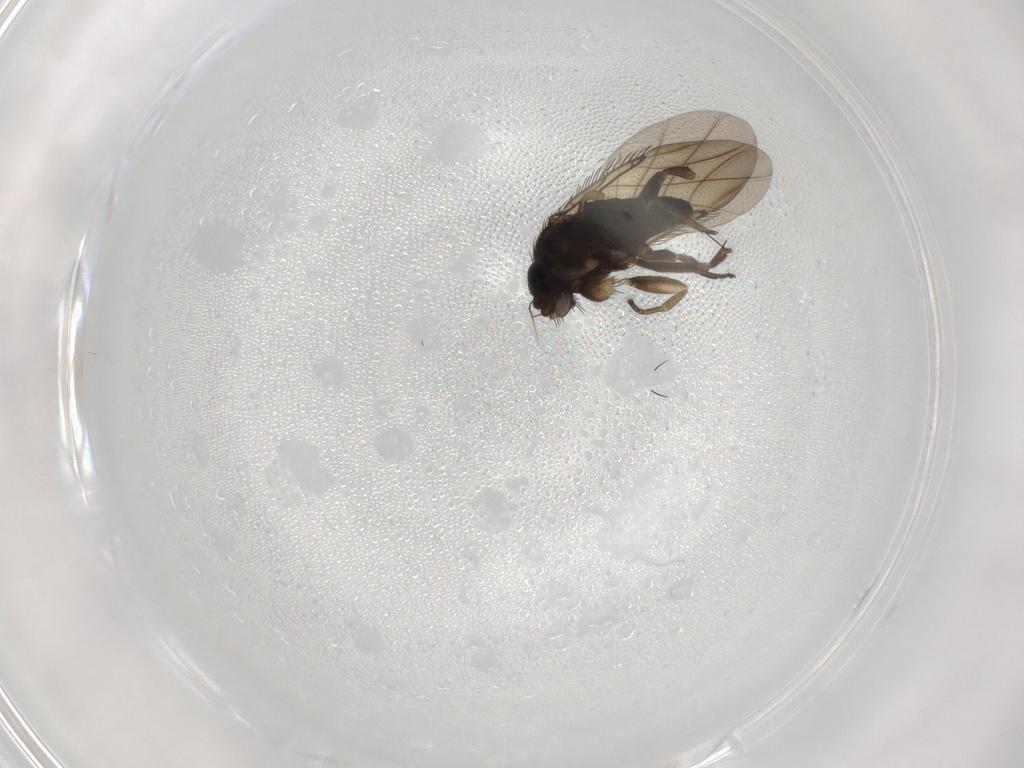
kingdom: Animalia
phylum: Arthropoda
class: Insecta
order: Diptera
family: Phoridae
